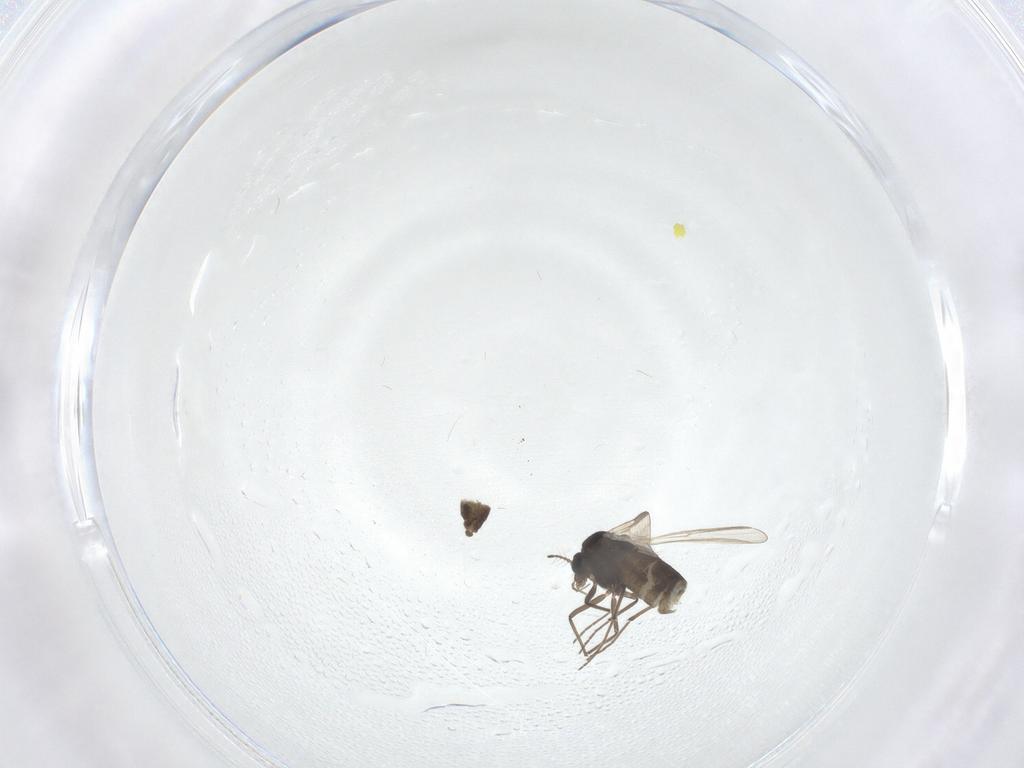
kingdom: Animalia
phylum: Arthropoda
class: Insecta
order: Diptera
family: Chironomidae
